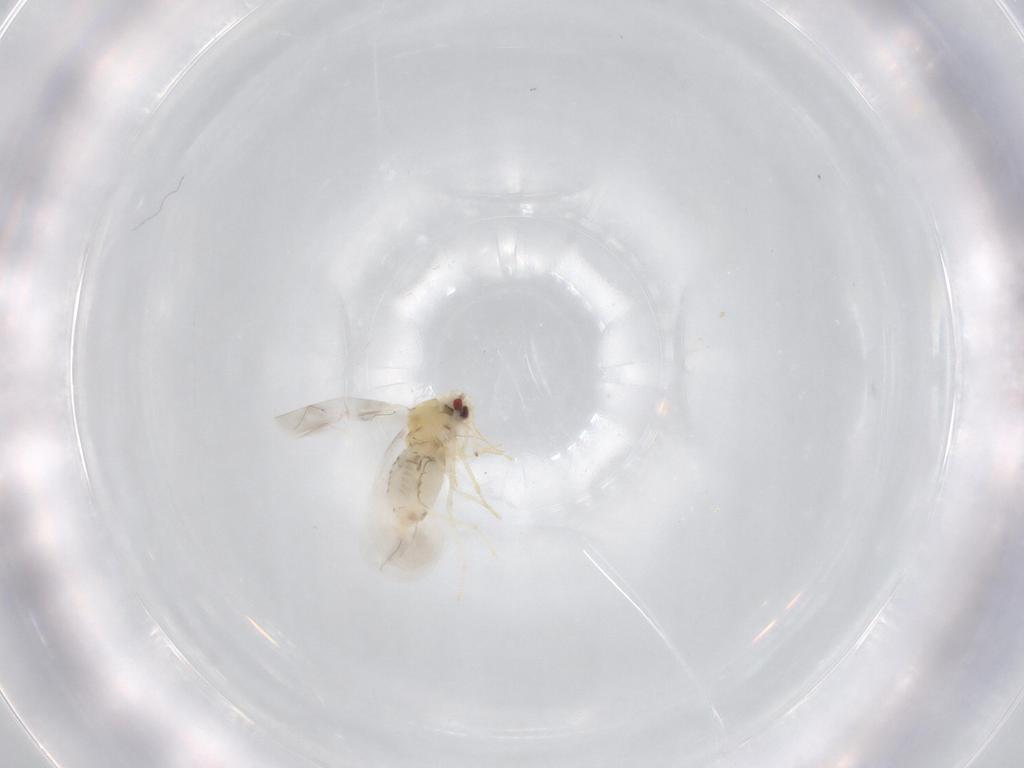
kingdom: Animalia
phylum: Arthropoda
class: Insecta
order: Hemiptera
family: Aleyrodidae
